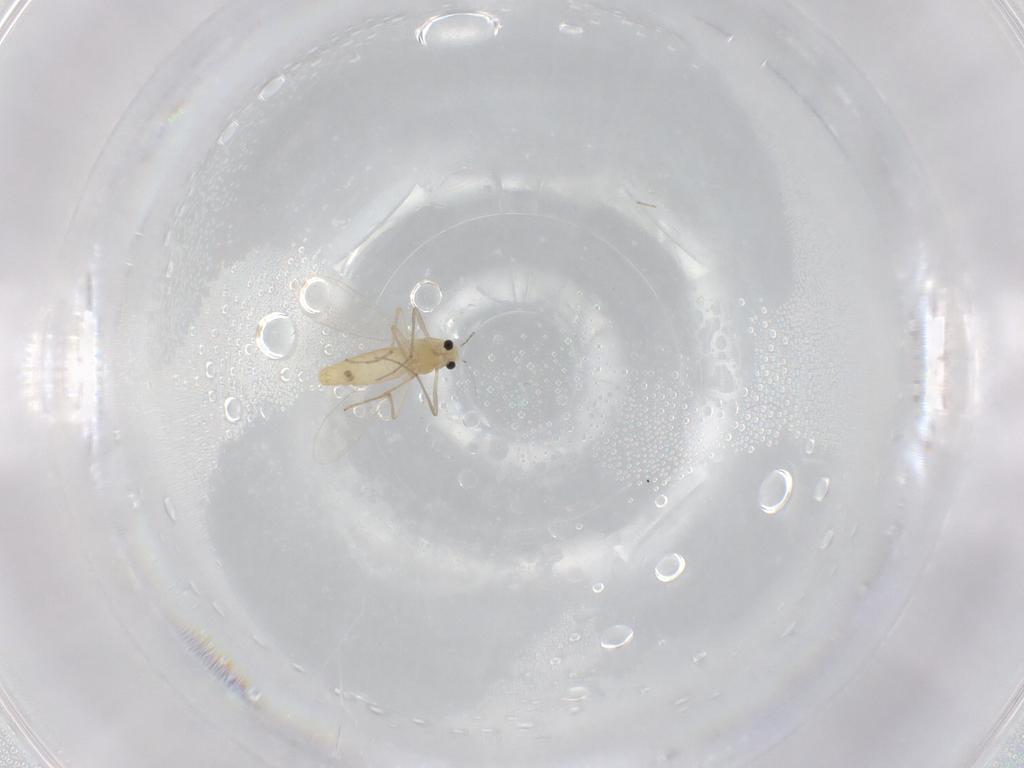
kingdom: Animalia
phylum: Arthropoda
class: Insecta
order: Diptera
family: Chironomidae
